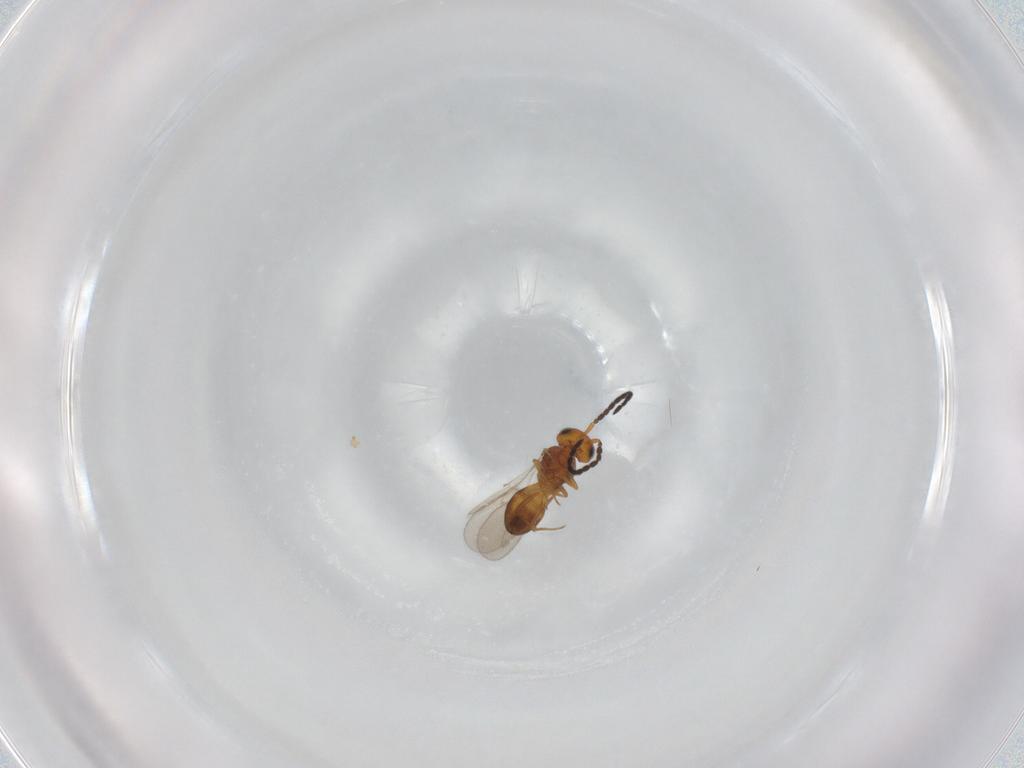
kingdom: Animalia
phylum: Arthropoda
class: Insecta
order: Hymenoptera
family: Scelionidae
